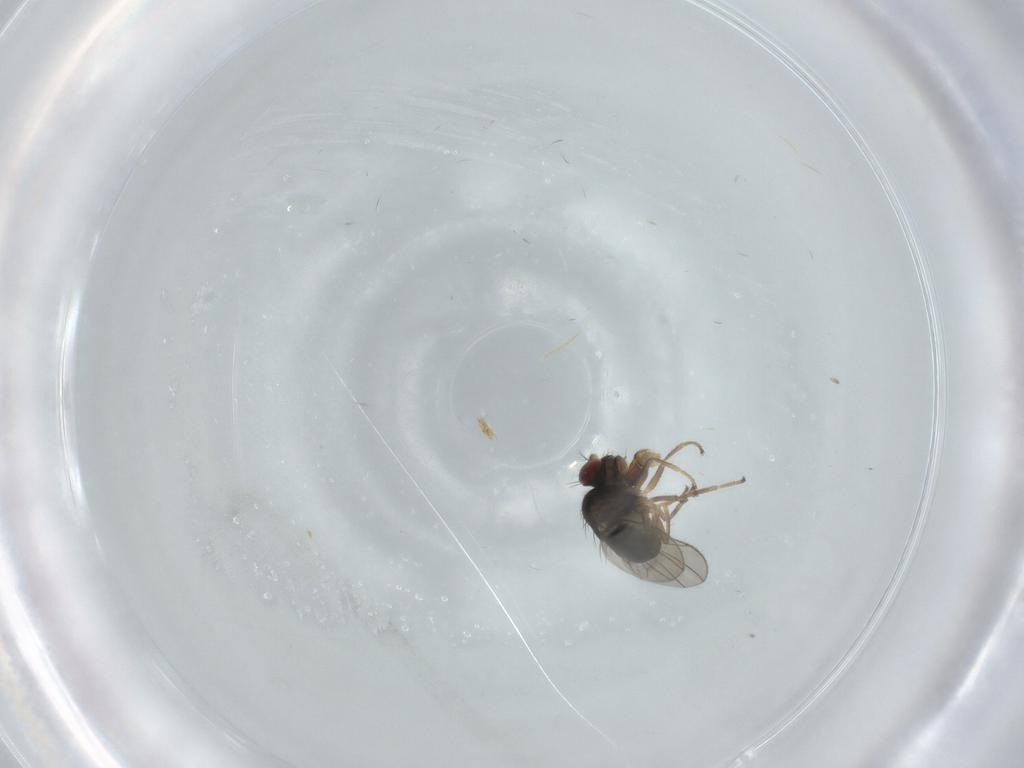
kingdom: Animalia
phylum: Arthropoda
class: Insecta
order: Diptera
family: Ephydridae
